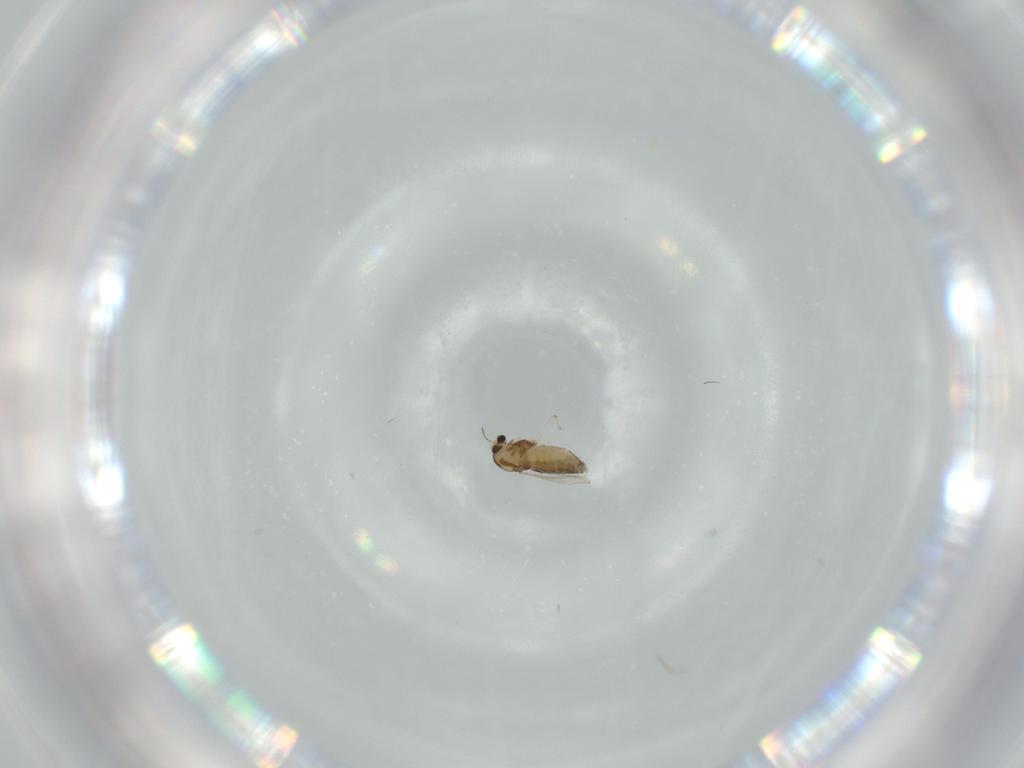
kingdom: Animalia
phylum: Arthropoda
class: Insecta
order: Diptera
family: Chironomidae
